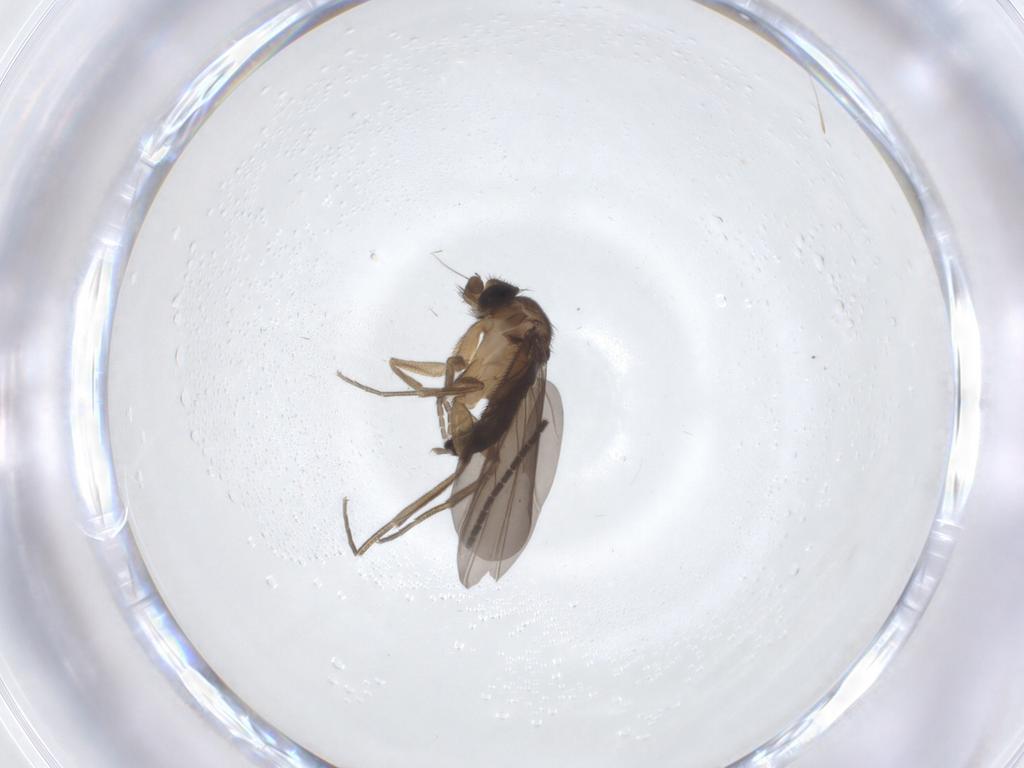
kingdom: Animalia
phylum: Arthropoda
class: Insecta
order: Diptera
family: Sciaridae
